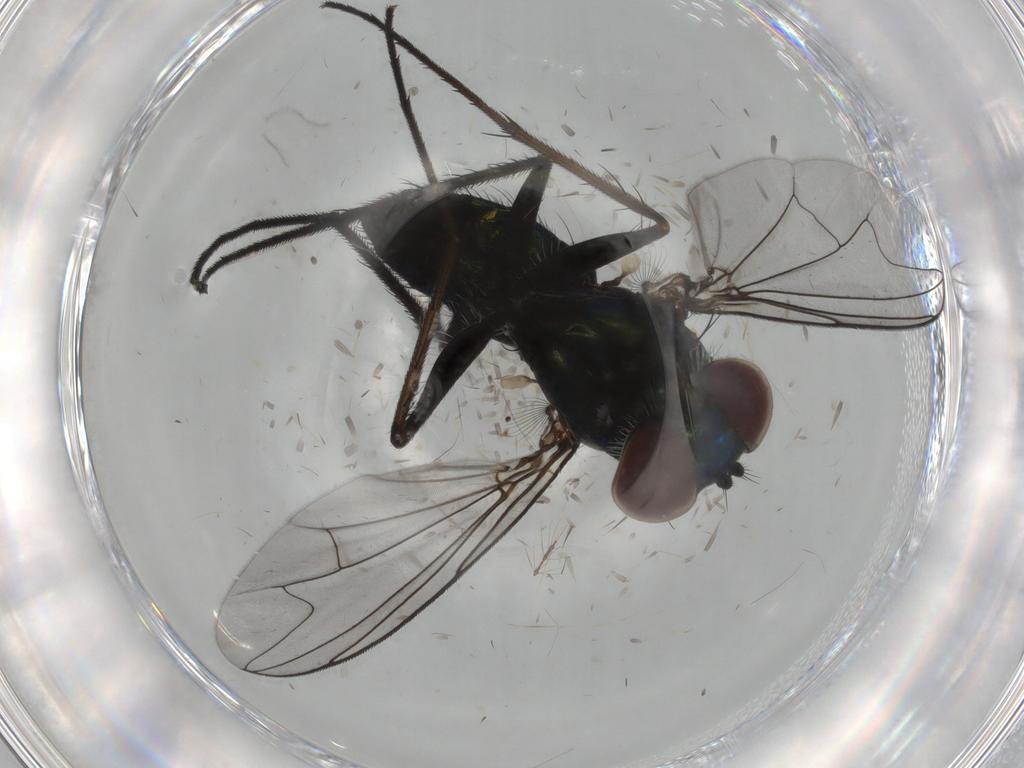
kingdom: Animalia
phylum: Arthropoda
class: Insecta
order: Diptera
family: Dolichopodidae
